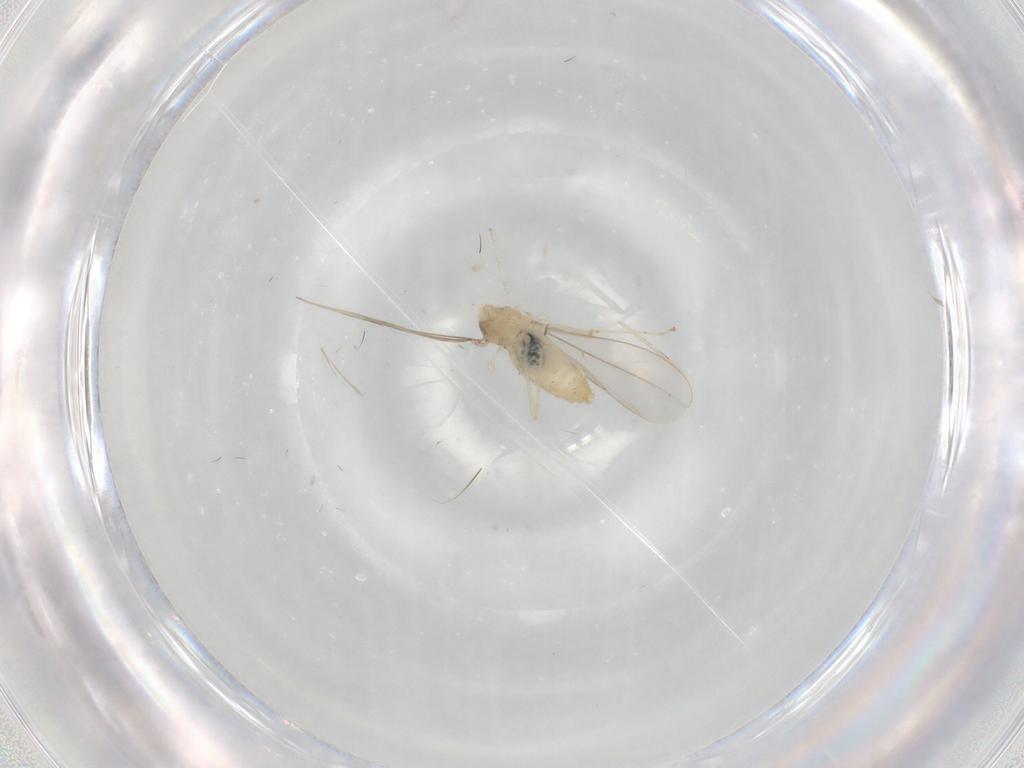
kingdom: Animalia
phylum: Arthropoda
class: Insecta
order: Diptera
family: Cecidomyiidae
